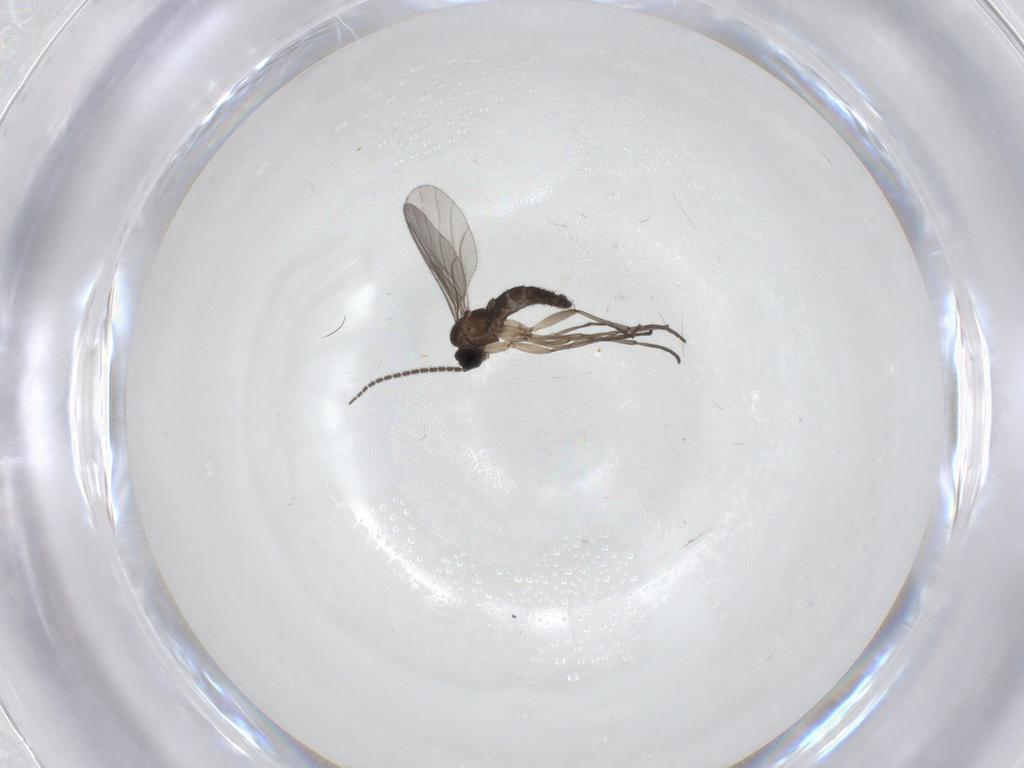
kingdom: Animalia
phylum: Arthropoda
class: Insecta
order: Diptera
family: Sciaridae
